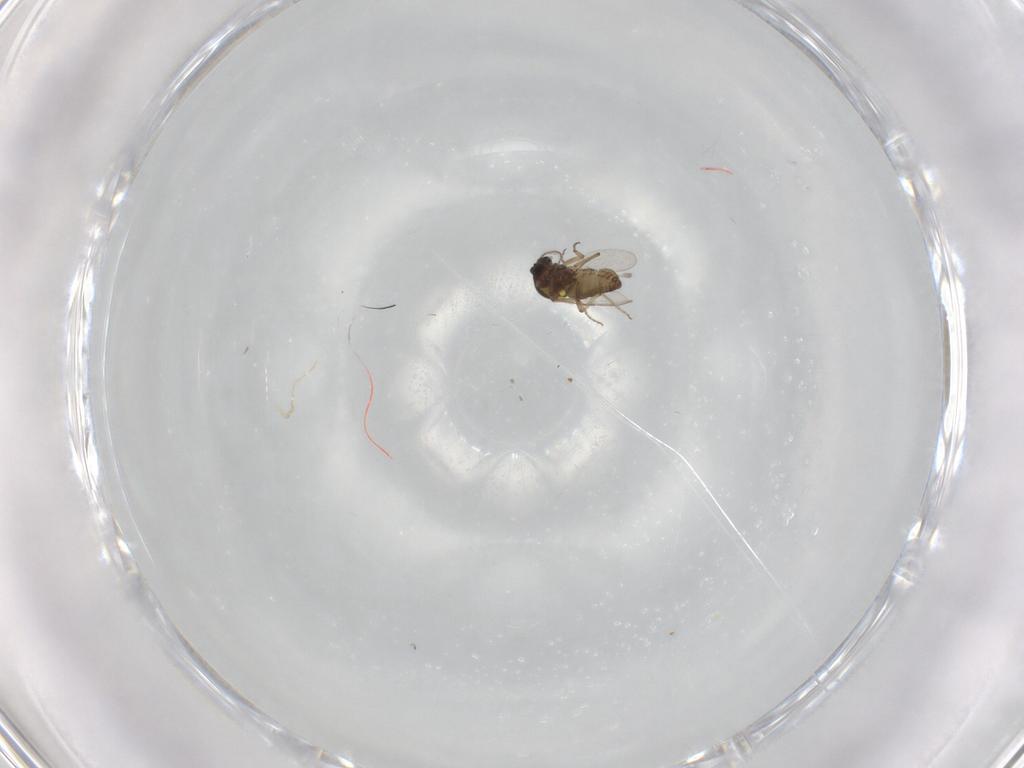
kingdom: Animalia
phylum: Arthropoda
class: Insecta
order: Diptera
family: Ceratopogonidae
